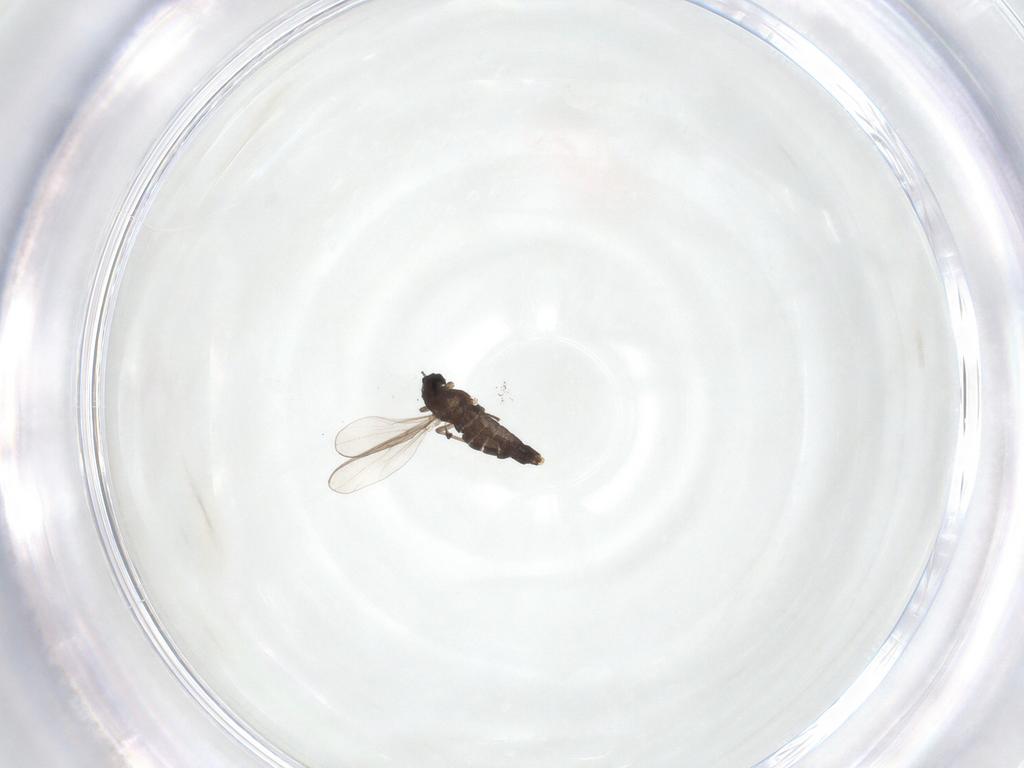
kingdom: Animalia
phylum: Arthropoda
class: Insecta
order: Diptera
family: Chironomidae
